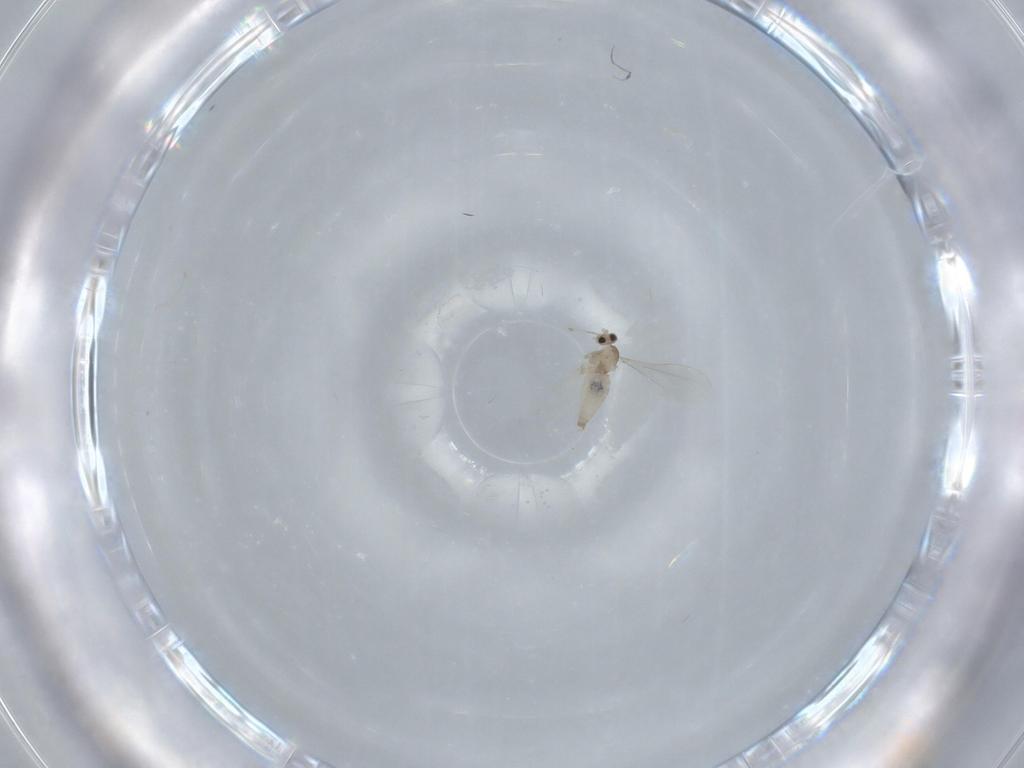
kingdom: Animalia
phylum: Arthropoda
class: Insecta
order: Diptera
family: Cecidomyiidae
